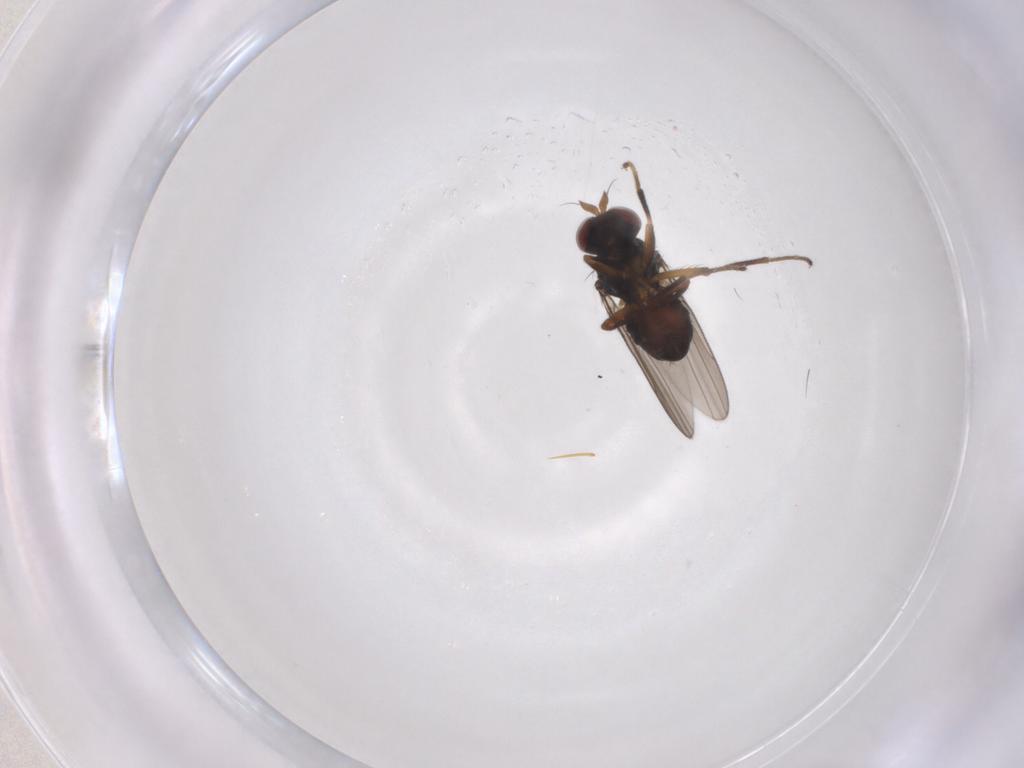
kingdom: Animalia
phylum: Arthropoda
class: Insecta
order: Diptera
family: Ephydridae
